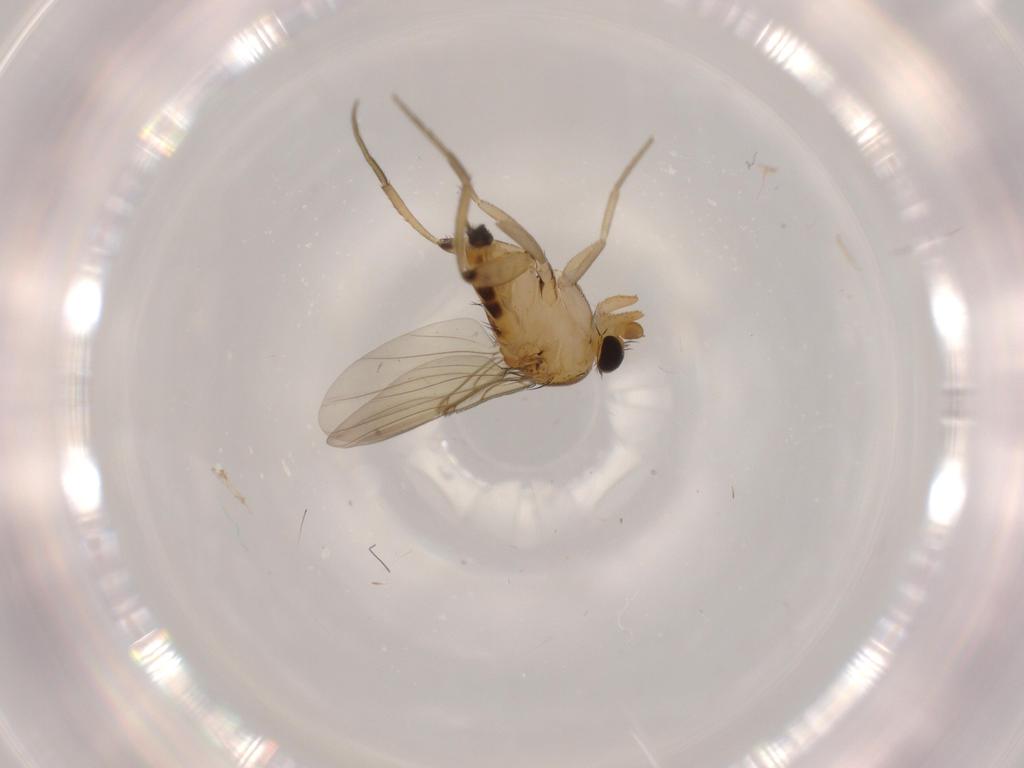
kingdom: Animalia
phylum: Arthropoda
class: Insecta
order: Diptera
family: Phoridae
